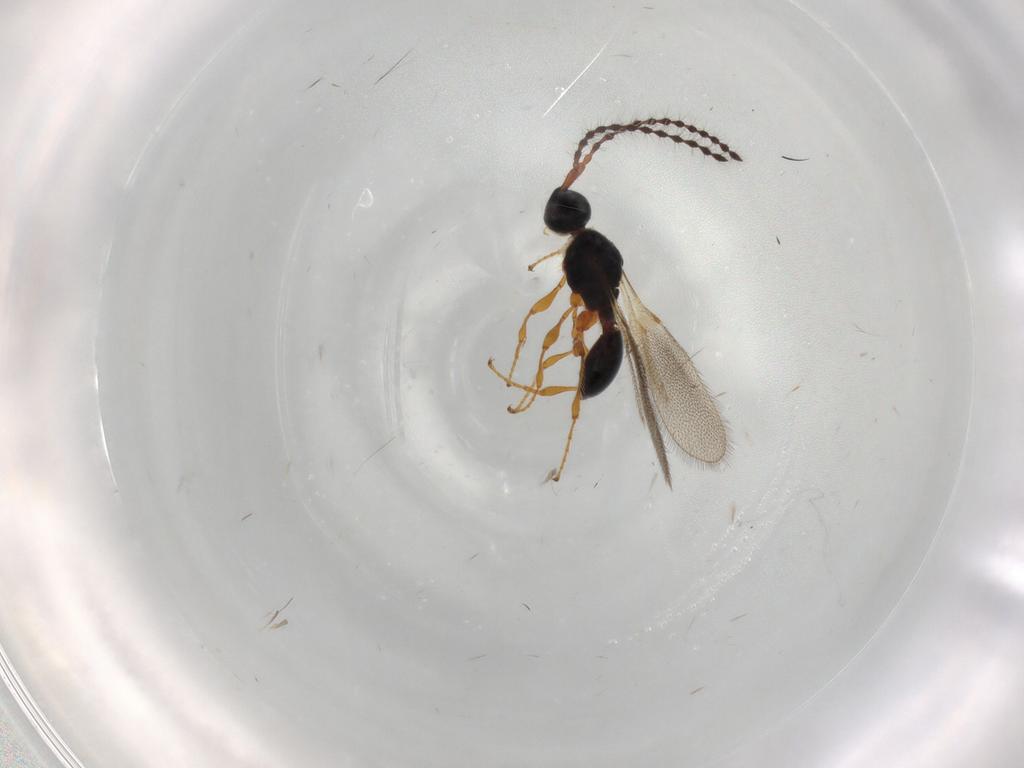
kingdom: Animalia
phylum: Arthropoda
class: Insecta
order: Hymenoptera
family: Diapriidae
